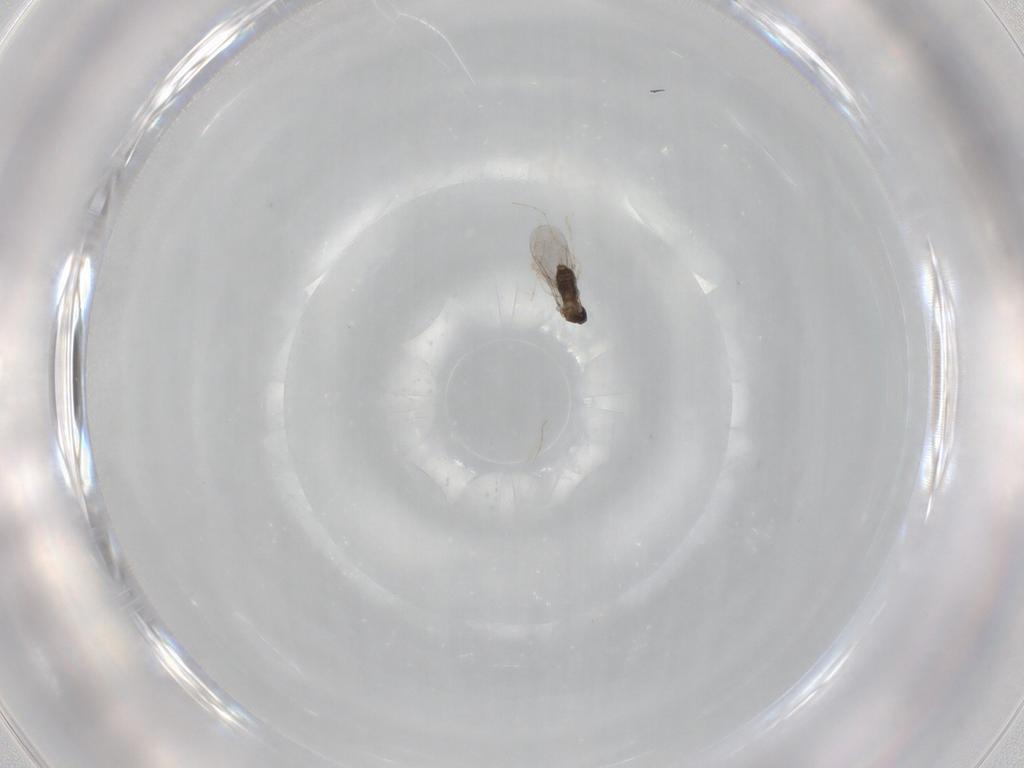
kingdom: Animalia
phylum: Arthropoda
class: Insecta
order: Diptera
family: Cecidomyiidae
